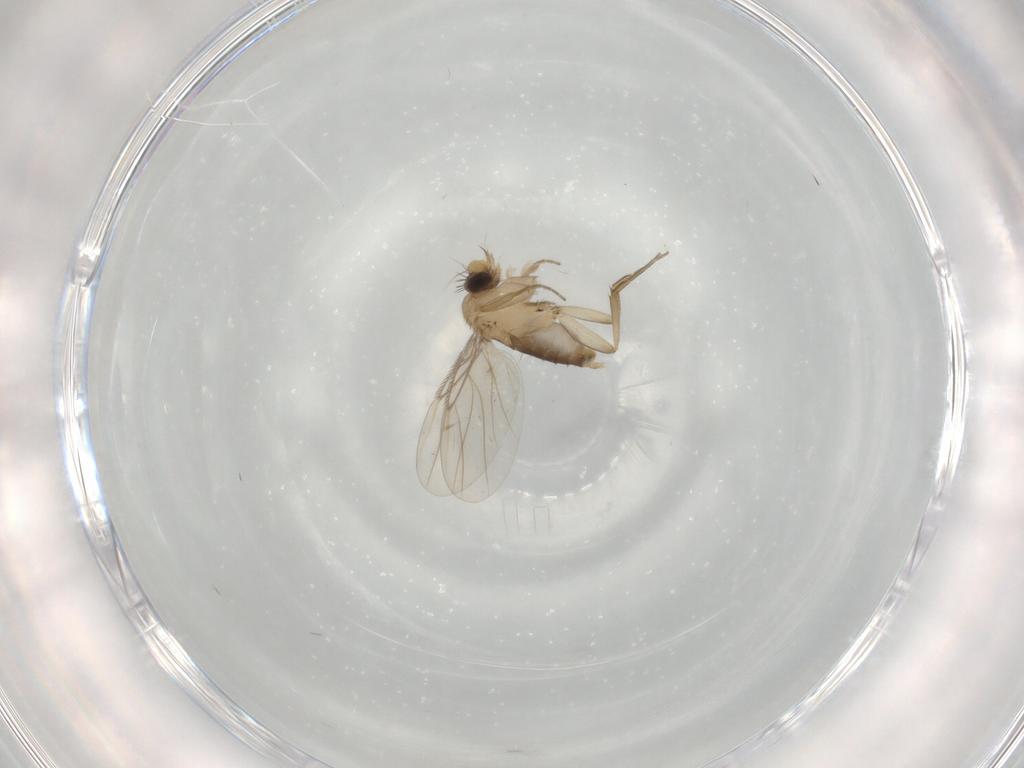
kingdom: Animalia
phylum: Arthropoda
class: Insecta
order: Diptera
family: Phoridae
